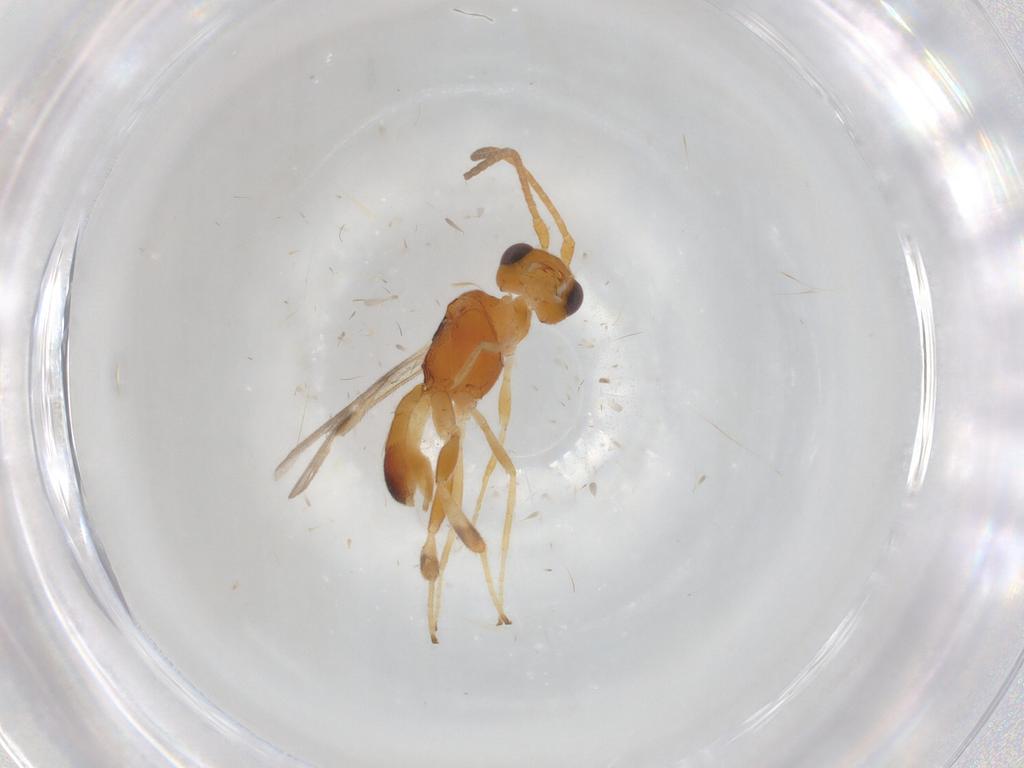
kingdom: Animalia
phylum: Arthropoda
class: Insecta
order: Hymenoptera
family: Braconidae
